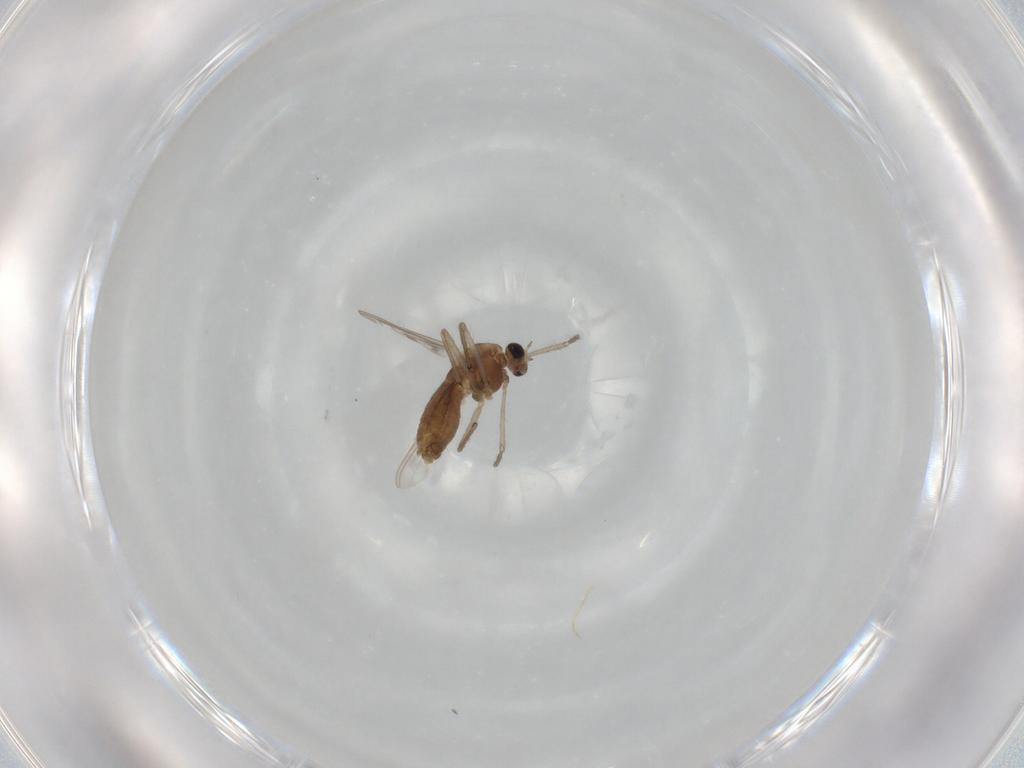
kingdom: Animalia
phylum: Arthropoda
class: Insecta
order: Diptera
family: Chironomidae
